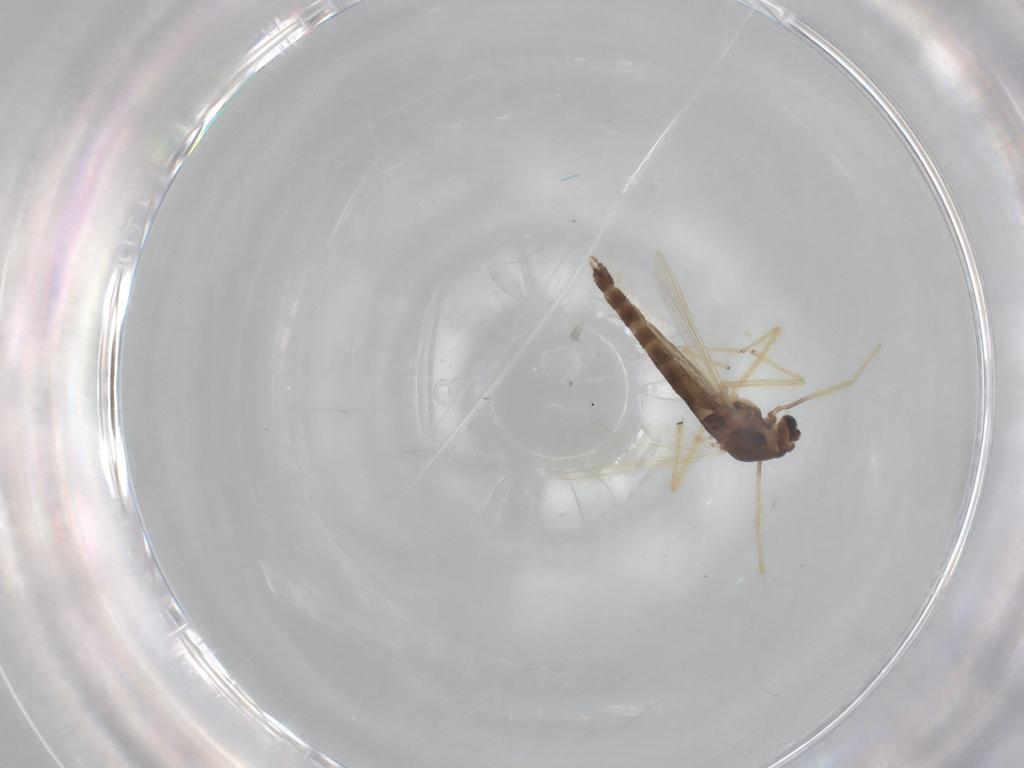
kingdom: Animalia
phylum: Arthropoda
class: Insecta
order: Diptera
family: Chironomidae
